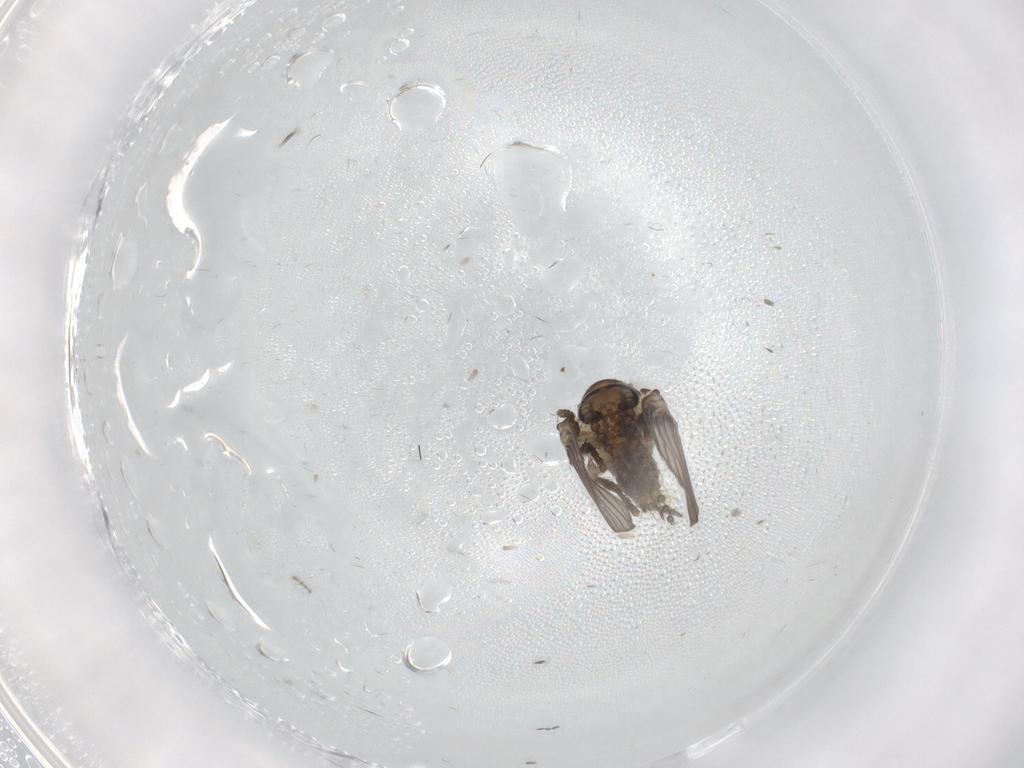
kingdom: Animalia
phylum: Arthropoda
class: Insecta
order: Diptera
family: Psychodidae
